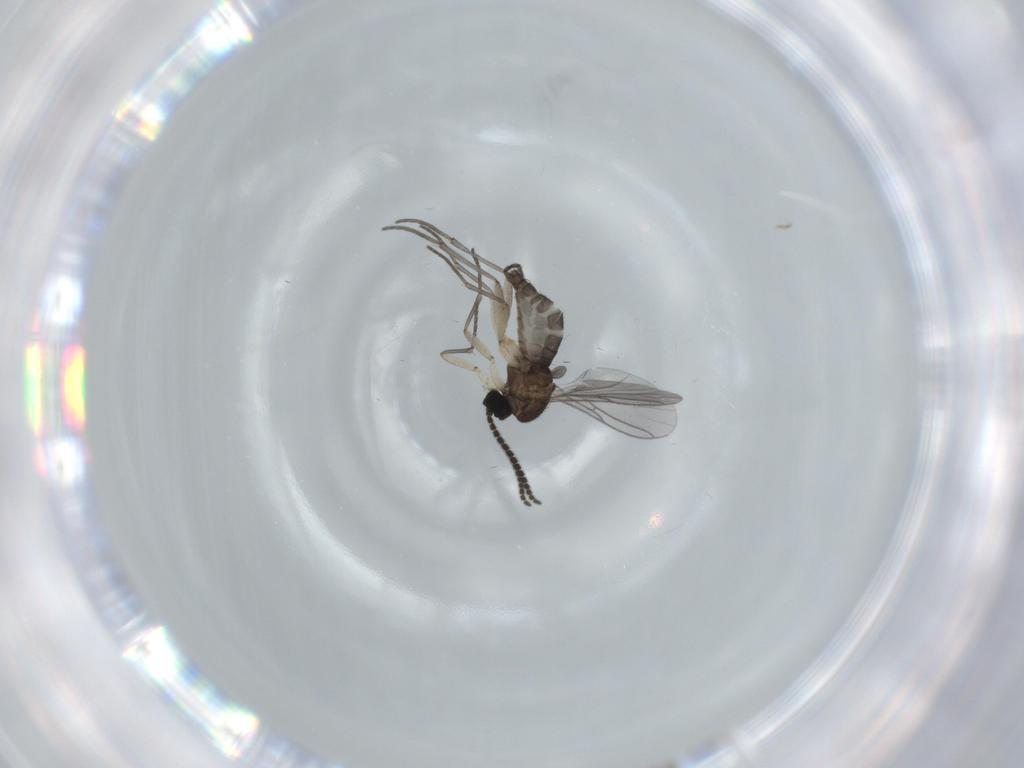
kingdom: Animalia
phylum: Arthropoda
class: Insecta
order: Diptera
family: Sciaridae
